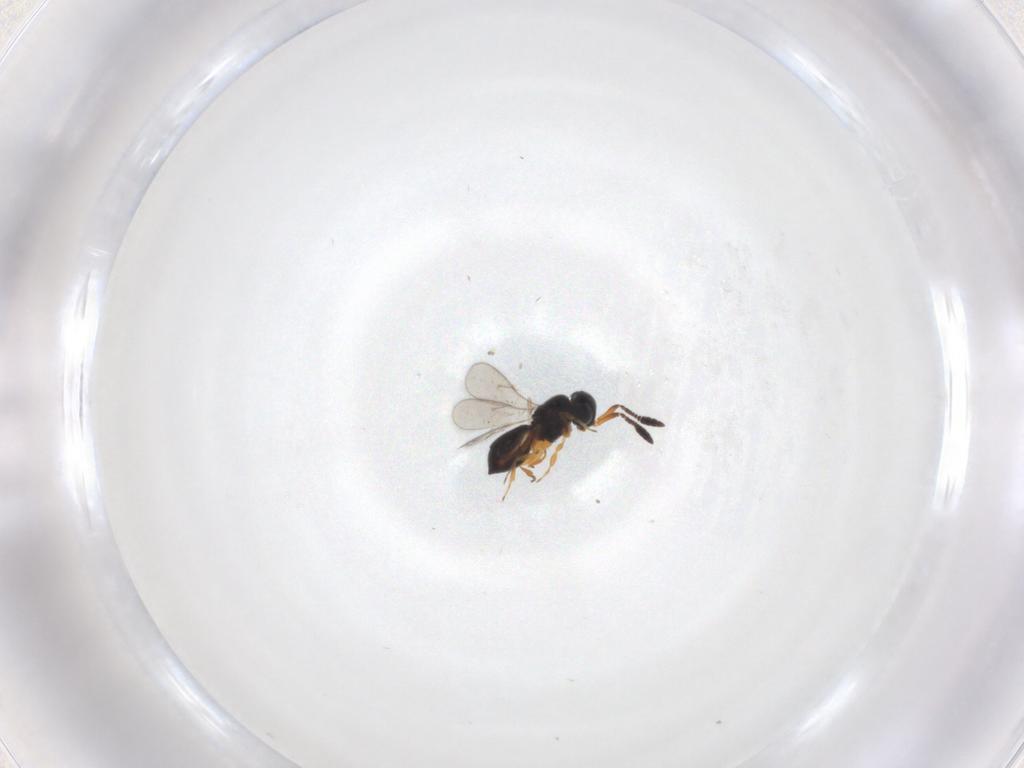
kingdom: Animalia
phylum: Arthropoda
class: Insecta
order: Hymenoptera
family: Scelionidae
